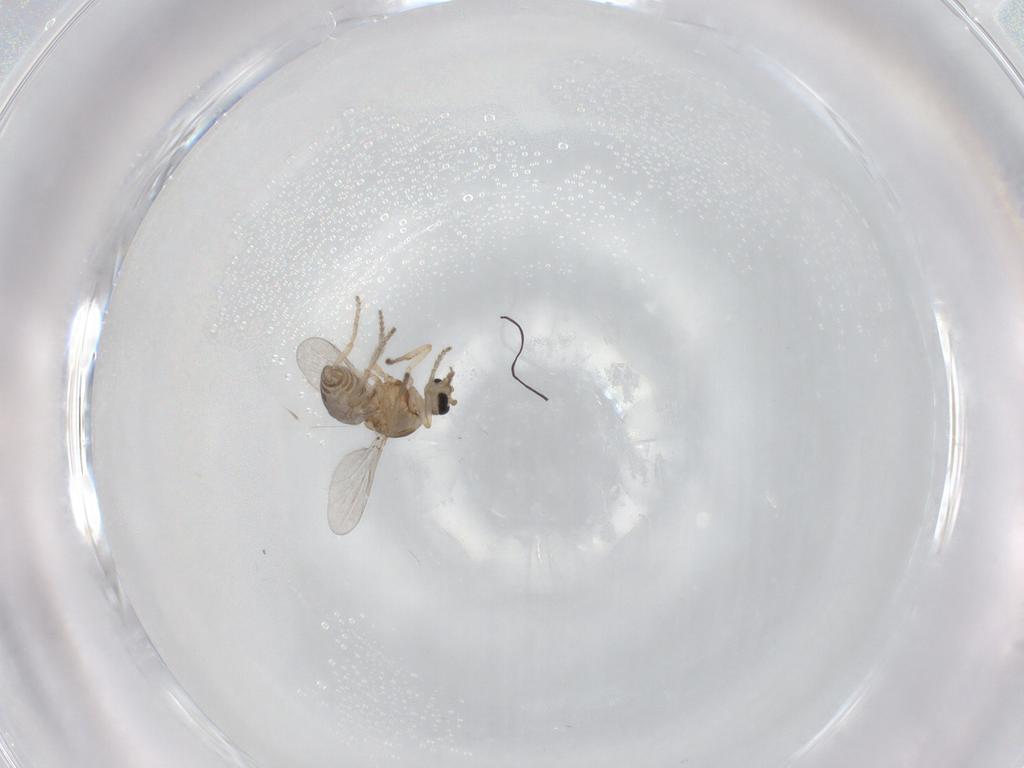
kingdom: Animalia
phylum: Arthropoda
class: Insecta
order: Diptera
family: Ceratopogonidae
